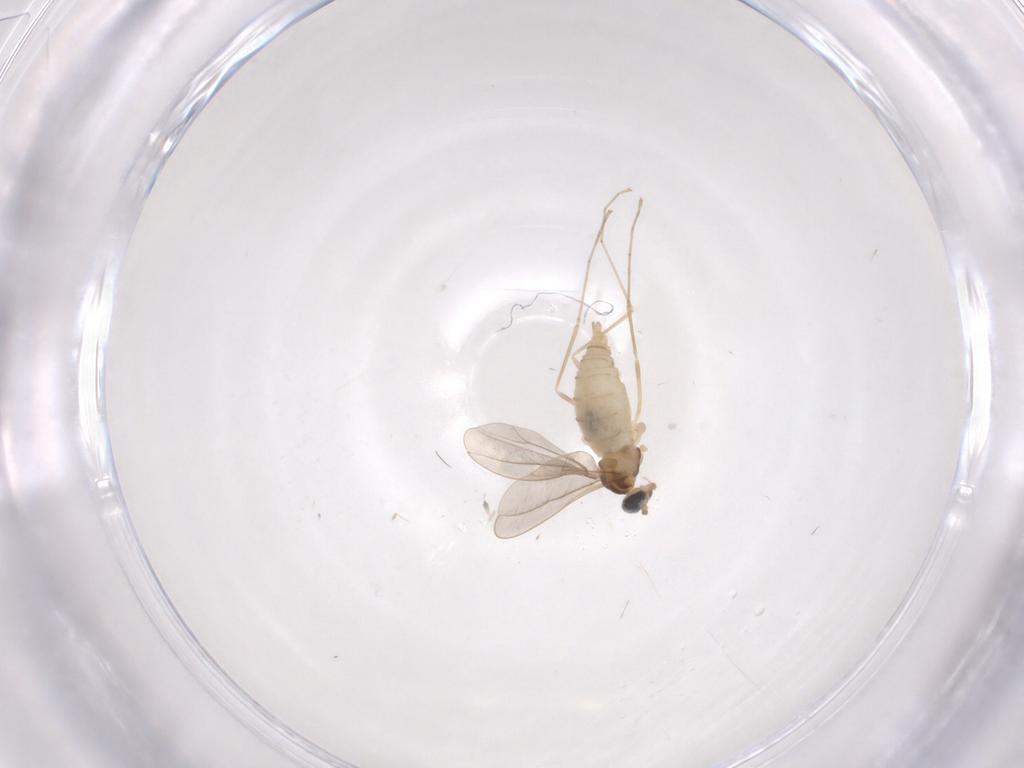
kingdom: Animalia
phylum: Arthropoda
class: Insecta
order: Diptera
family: Cecidomyiidae
